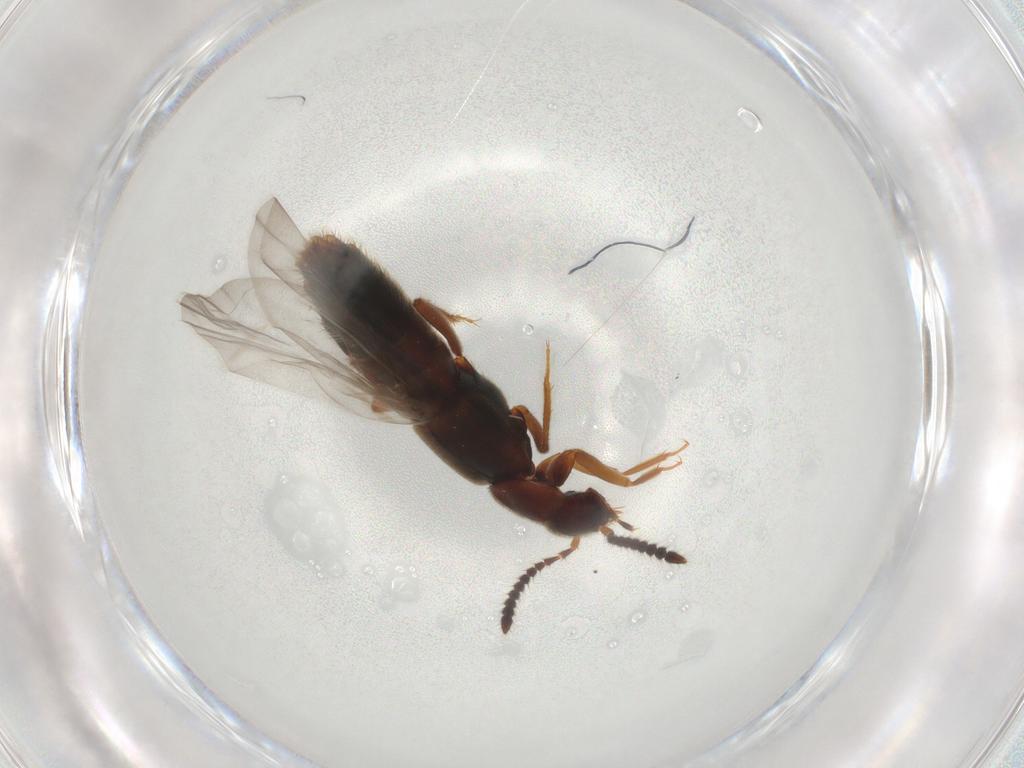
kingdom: Animalia
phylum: Arthropoda
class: Insecta
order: Coleoptera
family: Staphylinidae
